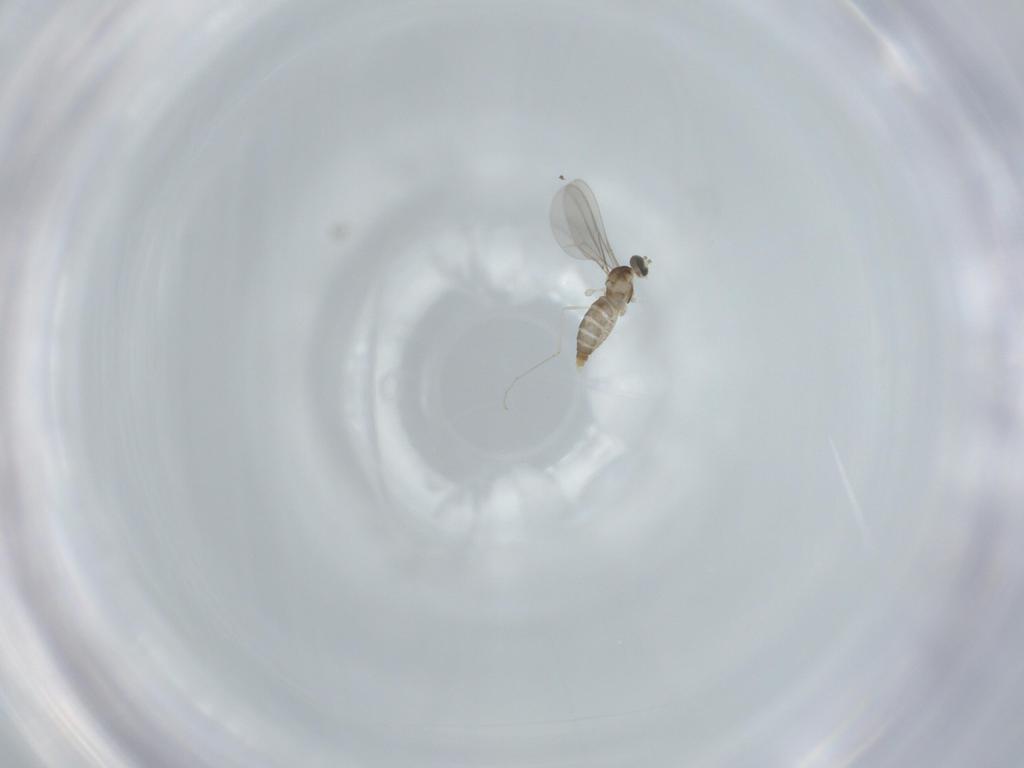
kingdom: Animalia
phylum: Arthropoda
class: Insecta
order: Diptera
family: Cecidomyiidae
